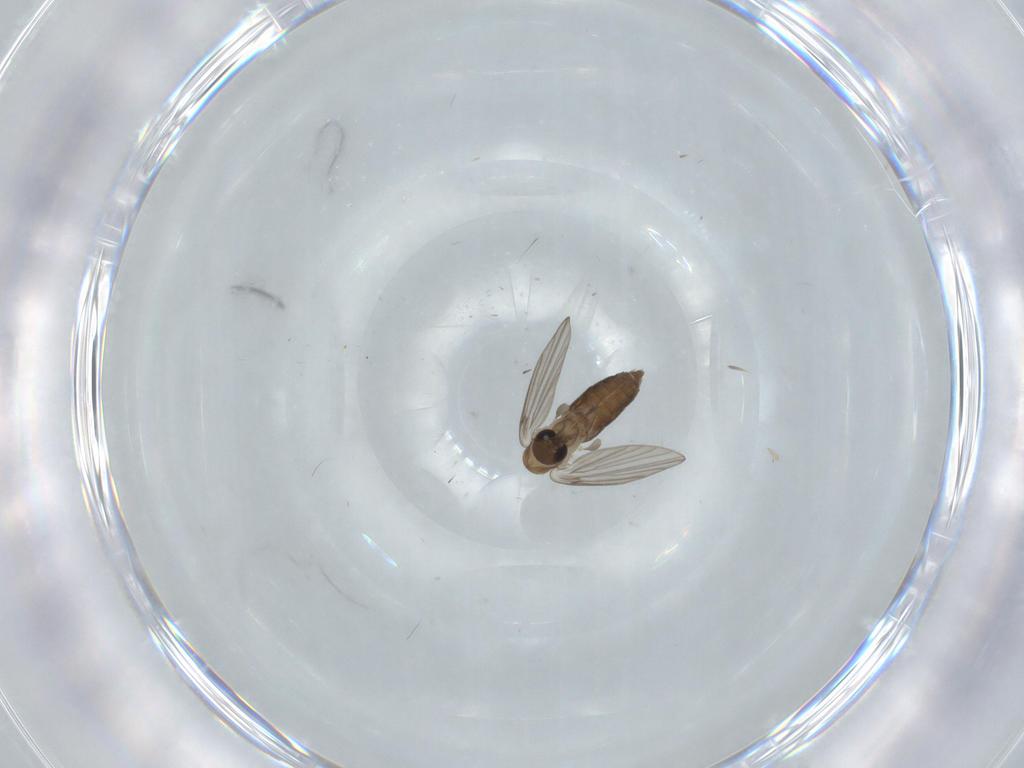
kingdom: Animalia
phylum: Arthropoda
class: Insecta
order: Diptera
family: Psychodidae
